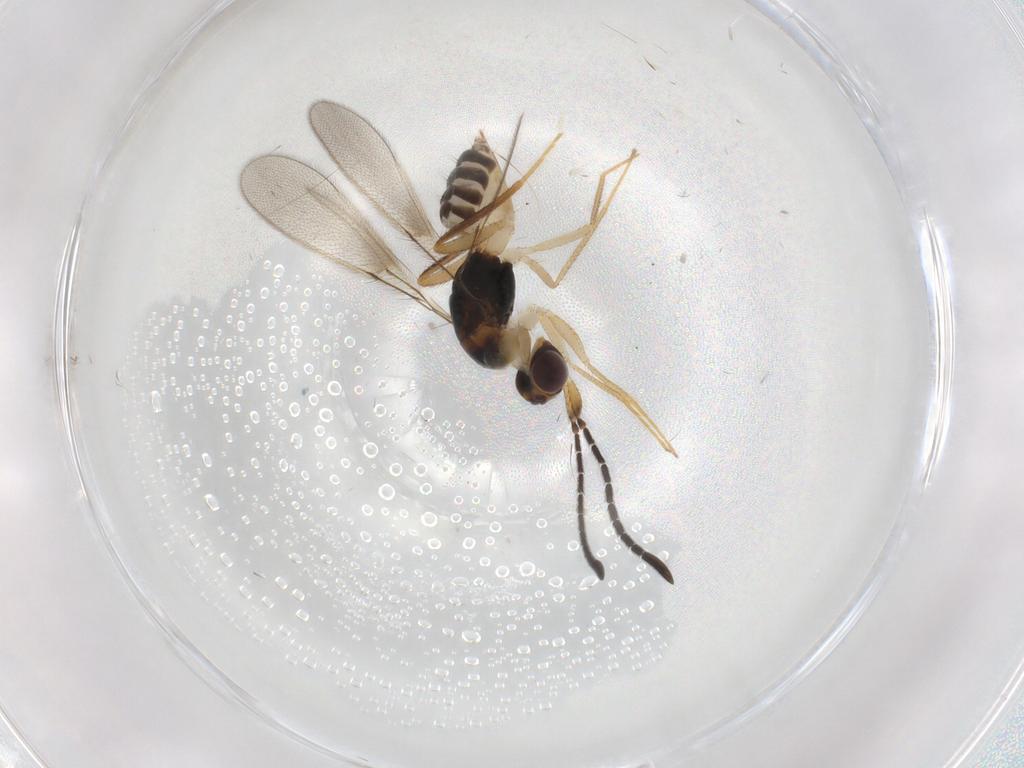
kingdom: Animalia
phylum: Arthropoda
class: Insecta
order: Hymenoptera
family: Mymaridae
